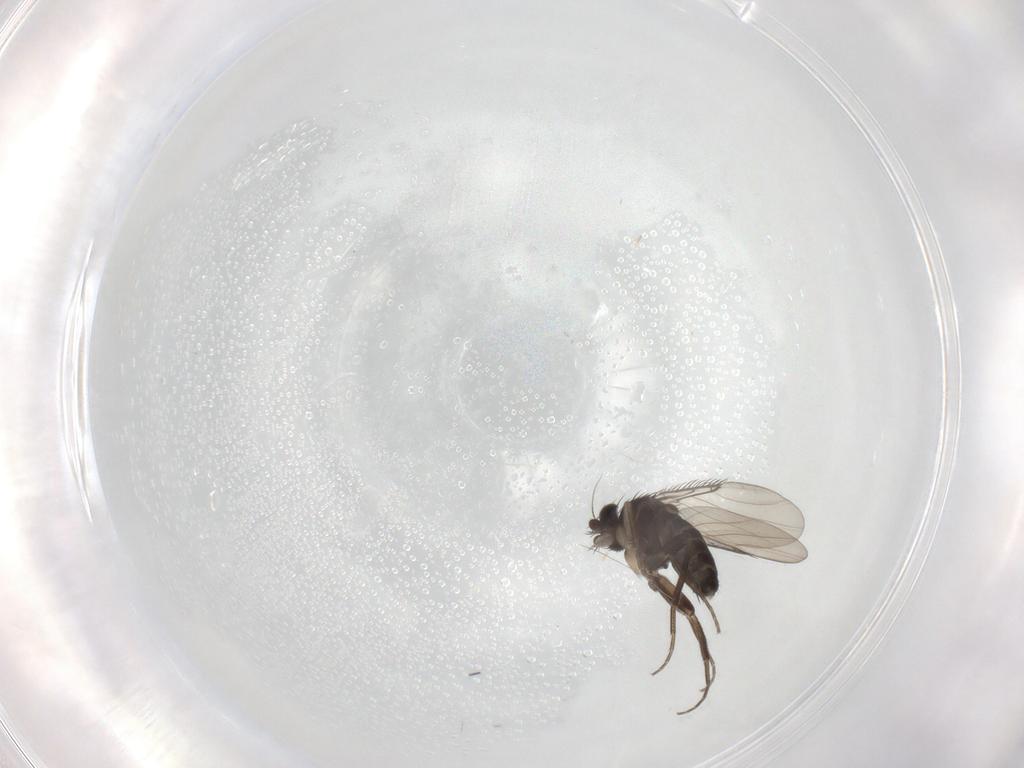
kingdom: Animalia
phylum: Arthropoda
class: Insecta
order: Diptera
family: Phoridae
